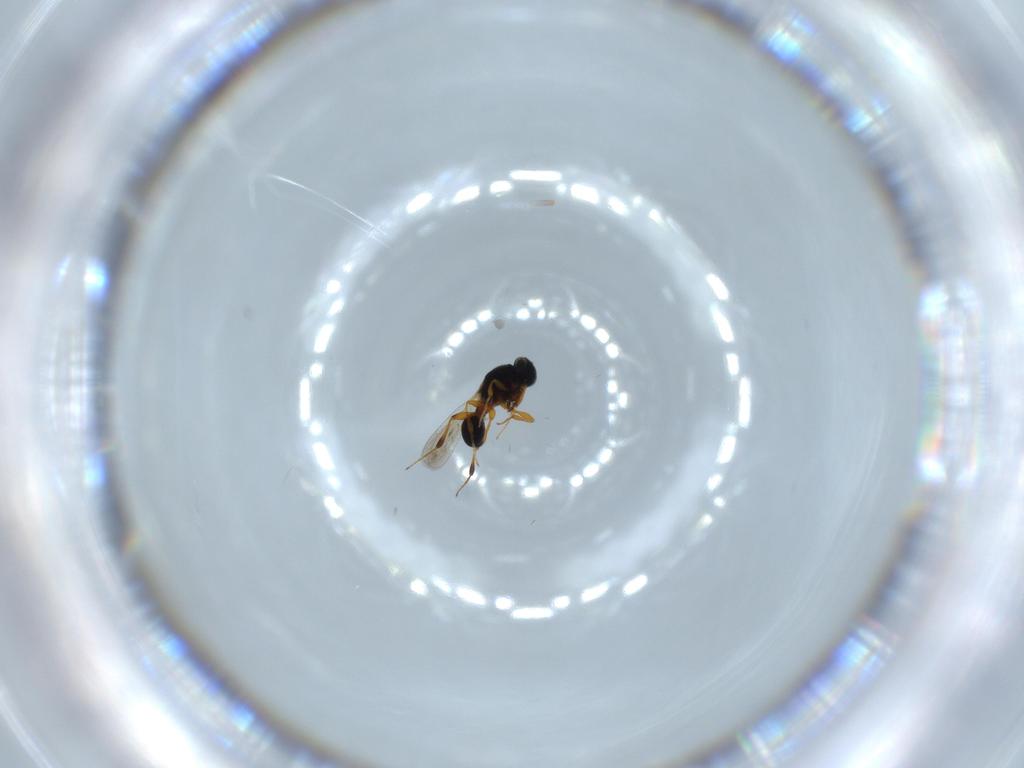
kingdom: Animalia
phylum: Arthropoda
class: Insecta
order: Hymenoptera
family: Platygastridae
